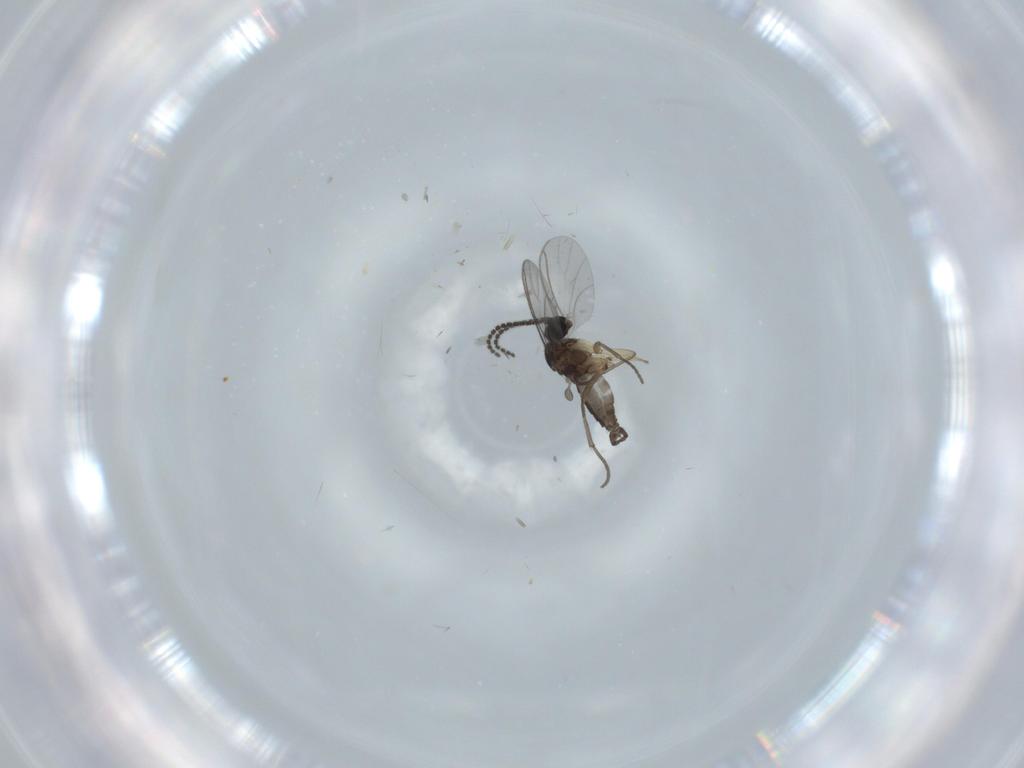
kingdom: Animalia
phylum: Arthropoda
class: Insecta
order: Diptera
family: Sciaridae
